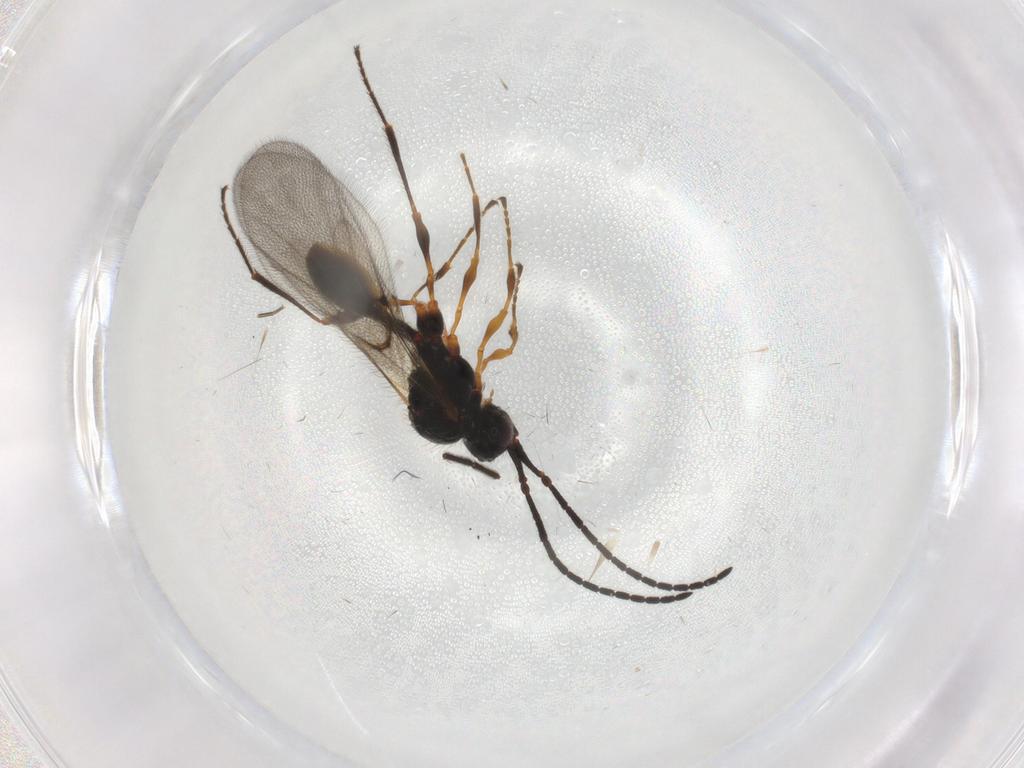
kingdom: Animalia
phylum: Arthropoda
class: Insecta
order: Hymenoptera
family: Diapriidae
